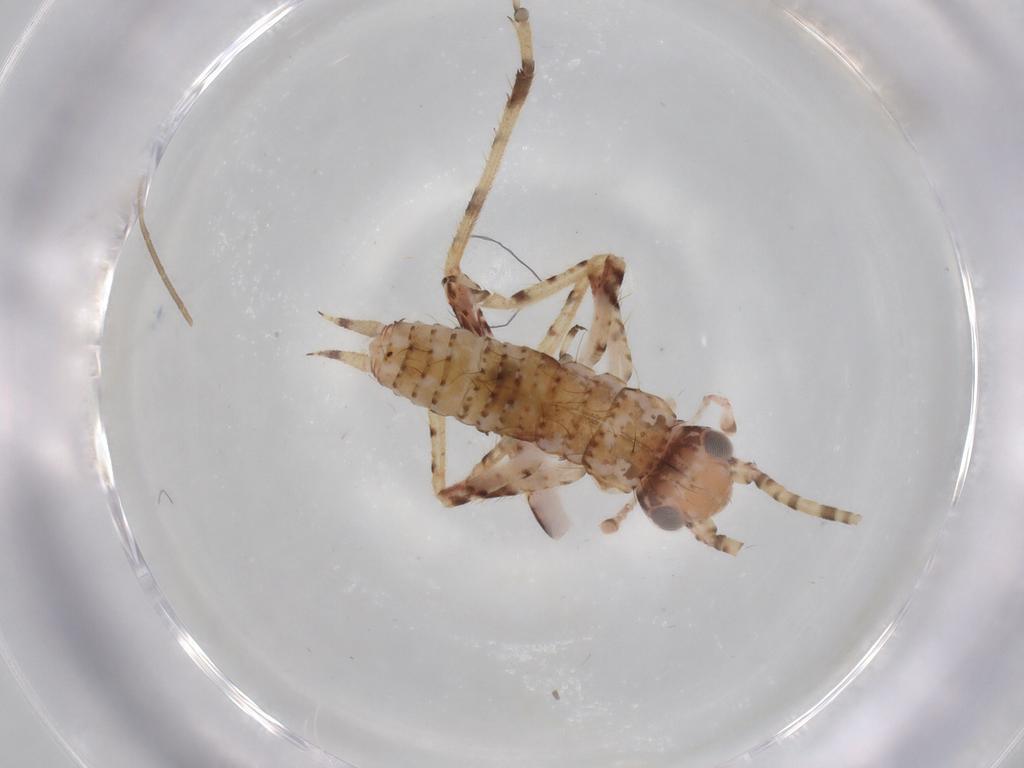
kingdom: Animalia
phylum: Arthropoda
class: Insecta
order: Orthoptera
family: Gryllidae
